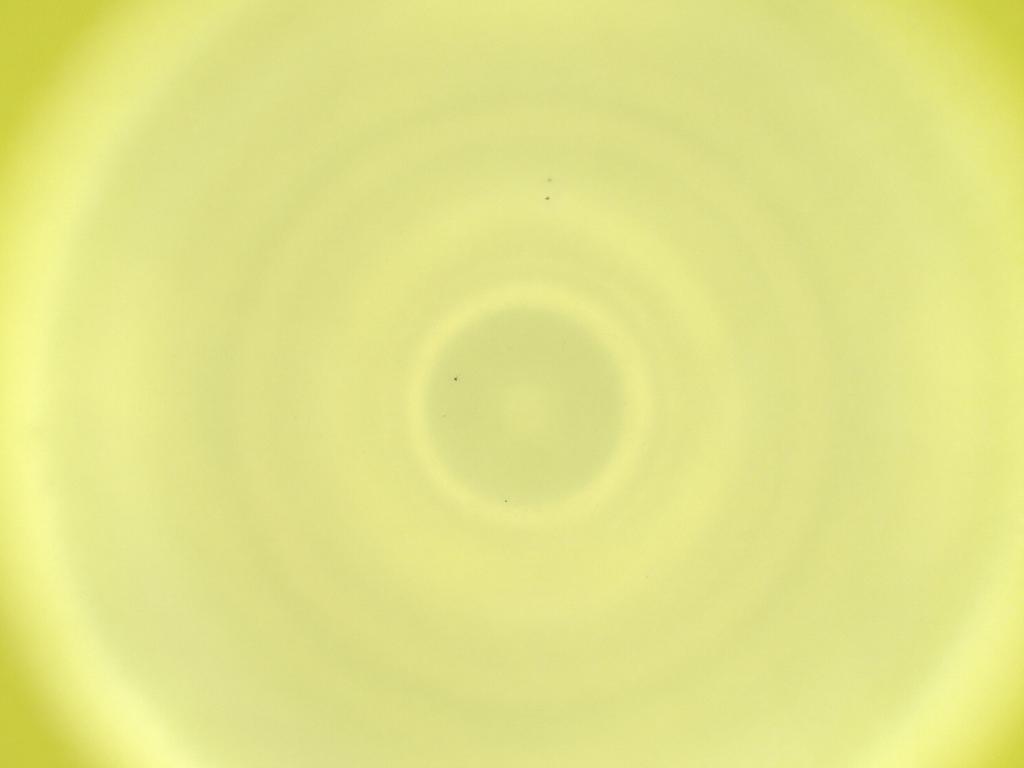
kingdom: Animalia
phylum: Arthropoda
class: Insecta
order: Diptera
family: Cecidomyiidae
